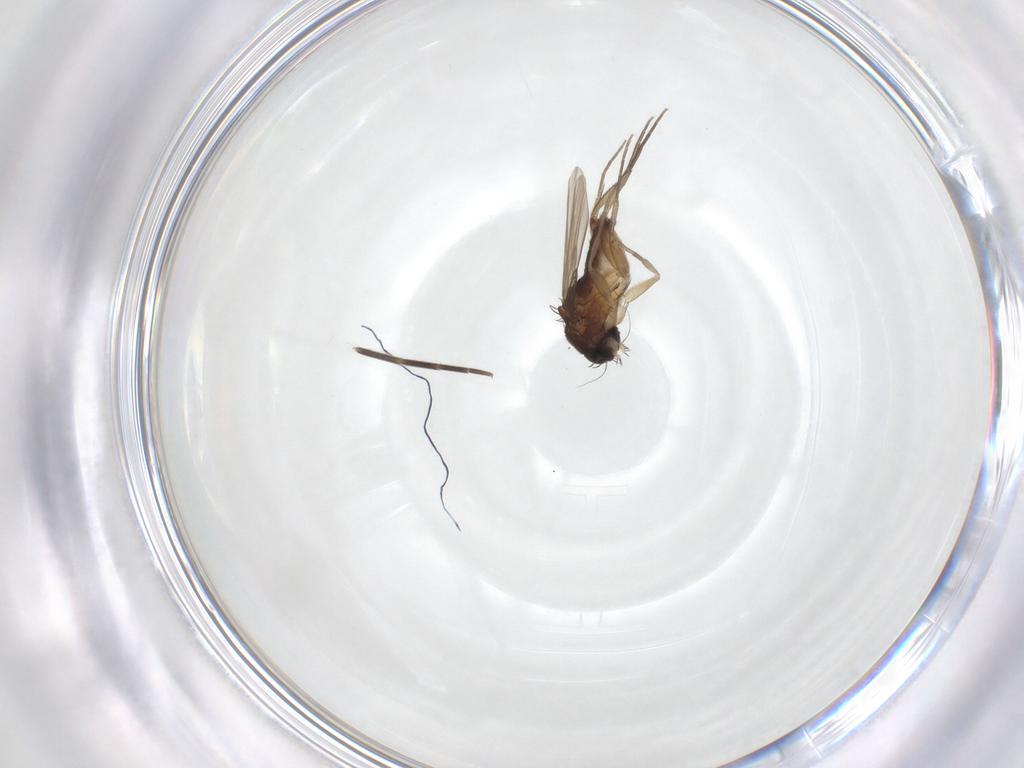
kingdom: Animalia
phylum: Arthropoda
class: Insecta
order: Diptera
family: Phoridae
